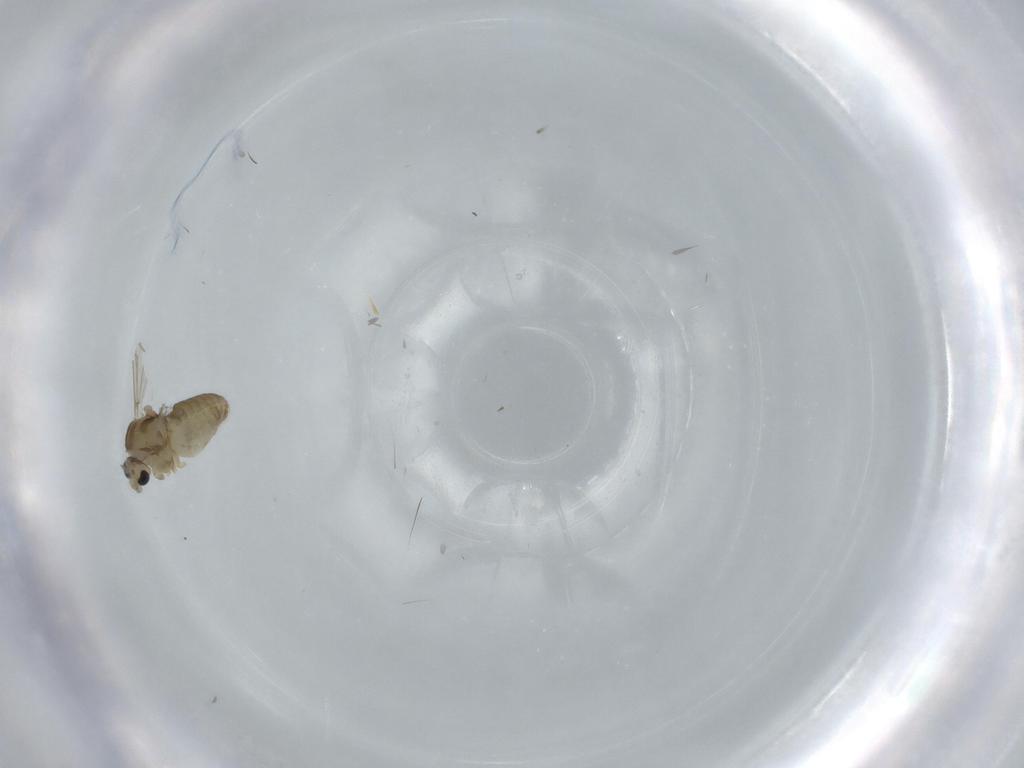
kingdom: Animalia
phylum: Arthropoda
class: Insecta
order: Diptera
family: Chironomidae
